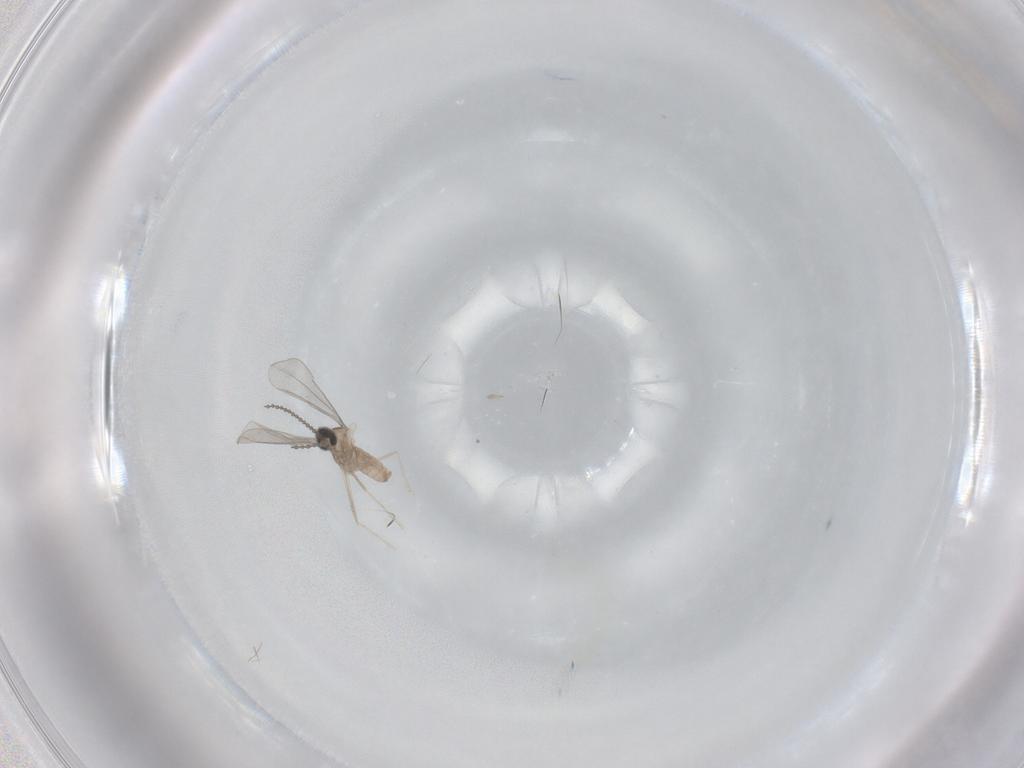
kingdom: Animalia
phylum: Arthropoda
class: Insecta
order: Diptera
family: Cecidomyiidae
